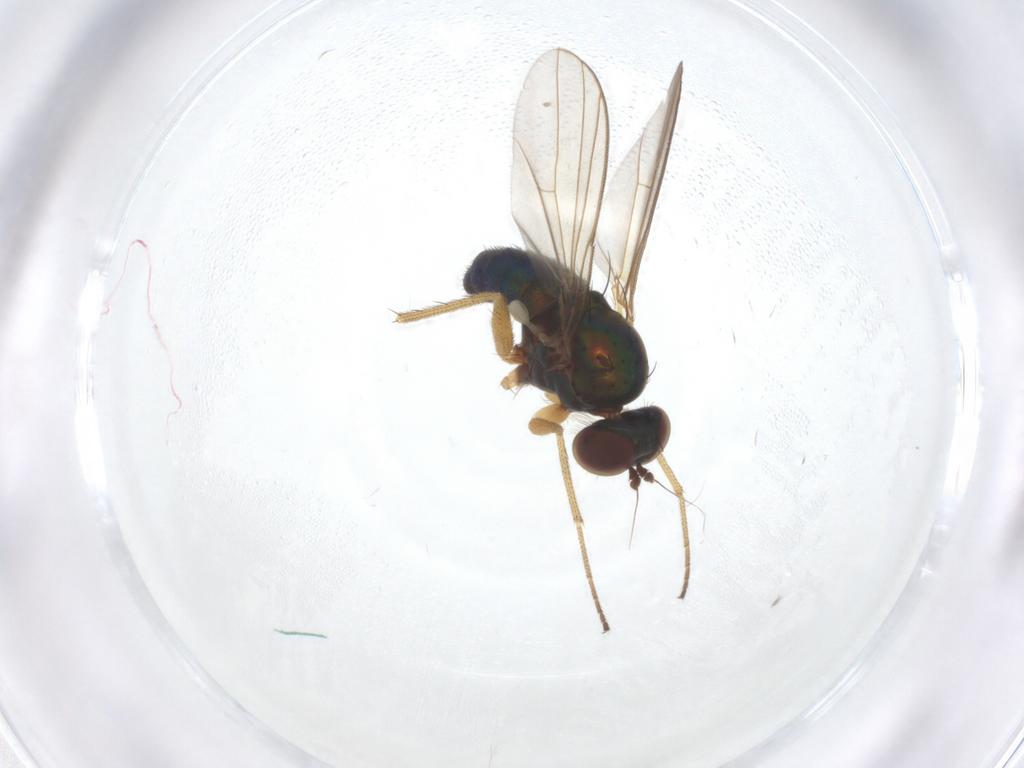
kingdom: Animalia
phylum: Arthropoda
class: Insecta
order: Diptera
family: Dolichopodidae
